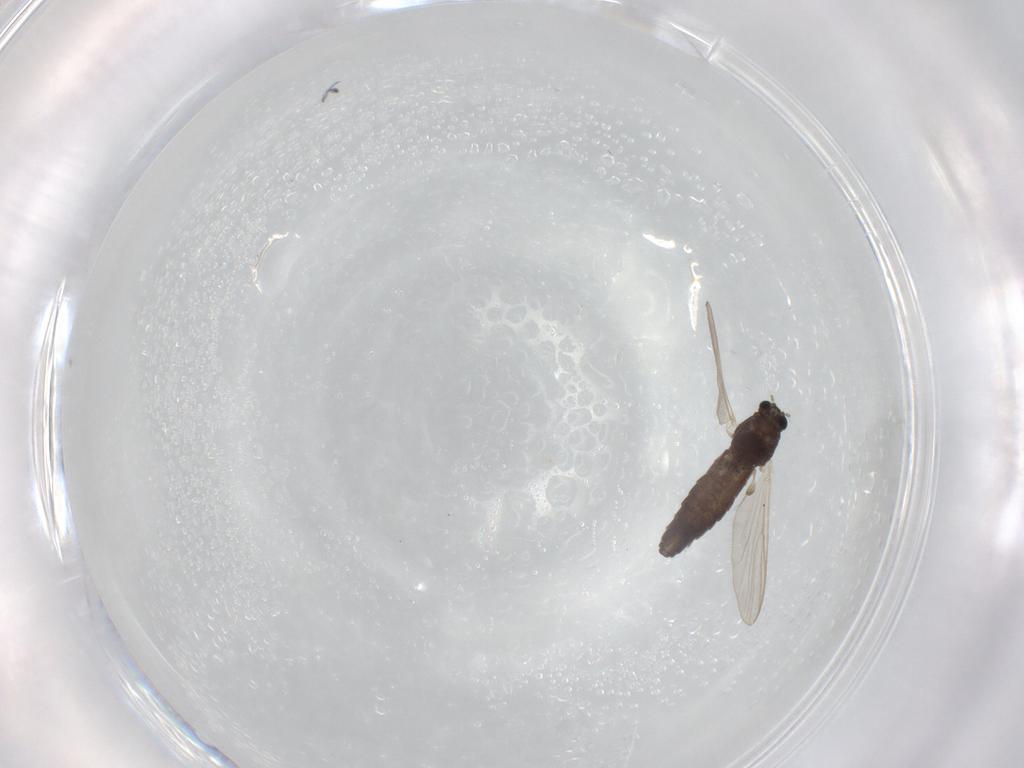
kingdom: Animalia
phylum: Arthropoda
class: Insecta
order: Diptera
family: Chironomidae
